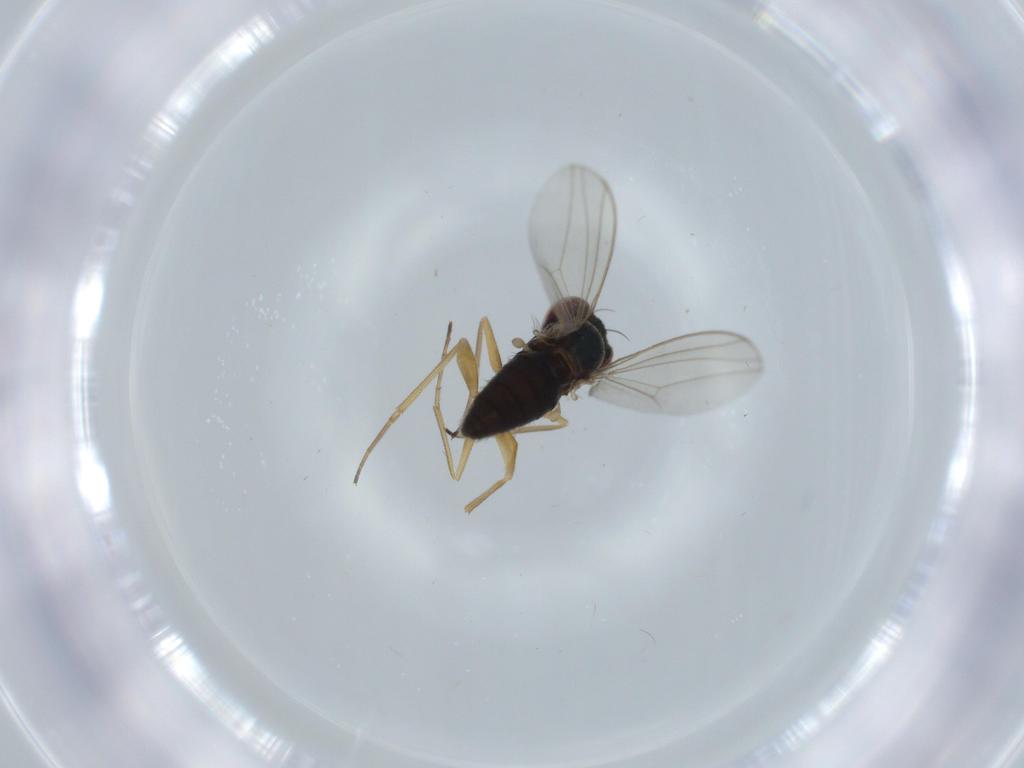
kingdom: Animalia
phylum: Arthropoda
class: Insecta
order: Diptera
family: Dolichopodidae
